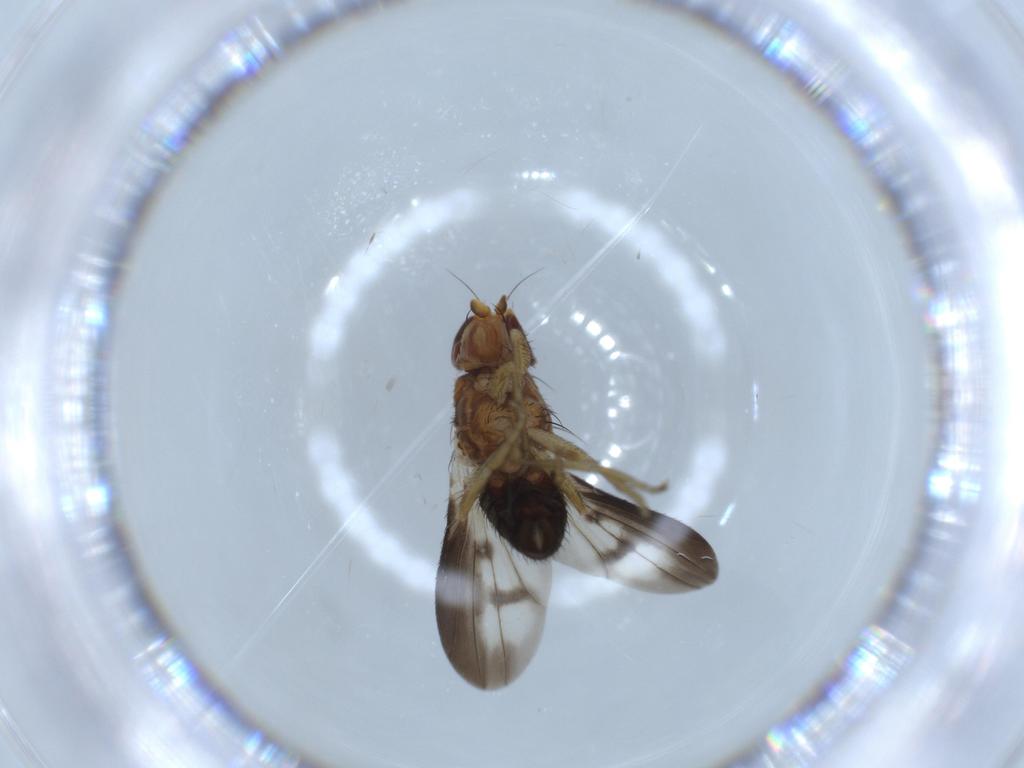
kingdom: Animalia
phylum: Arthropoda
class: Insecta
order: Diptera
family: Heleomyzidae
